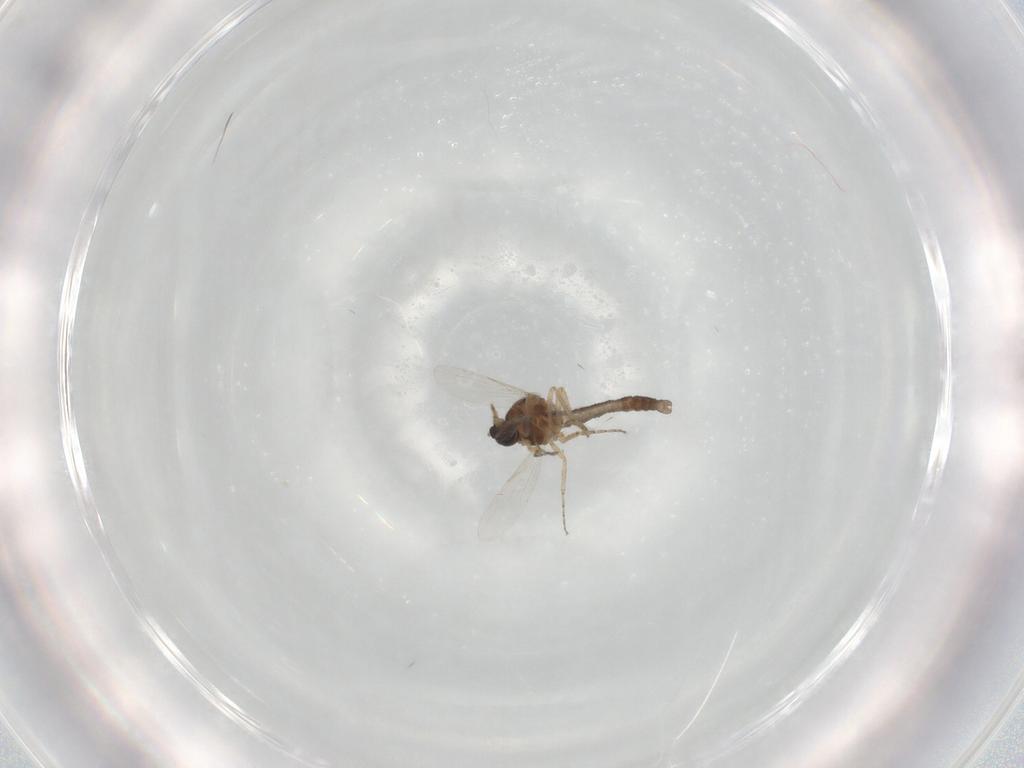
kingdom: Animalia
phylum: Arthropoda
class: Insecta
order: Diptera
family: Ceratopogonidae
